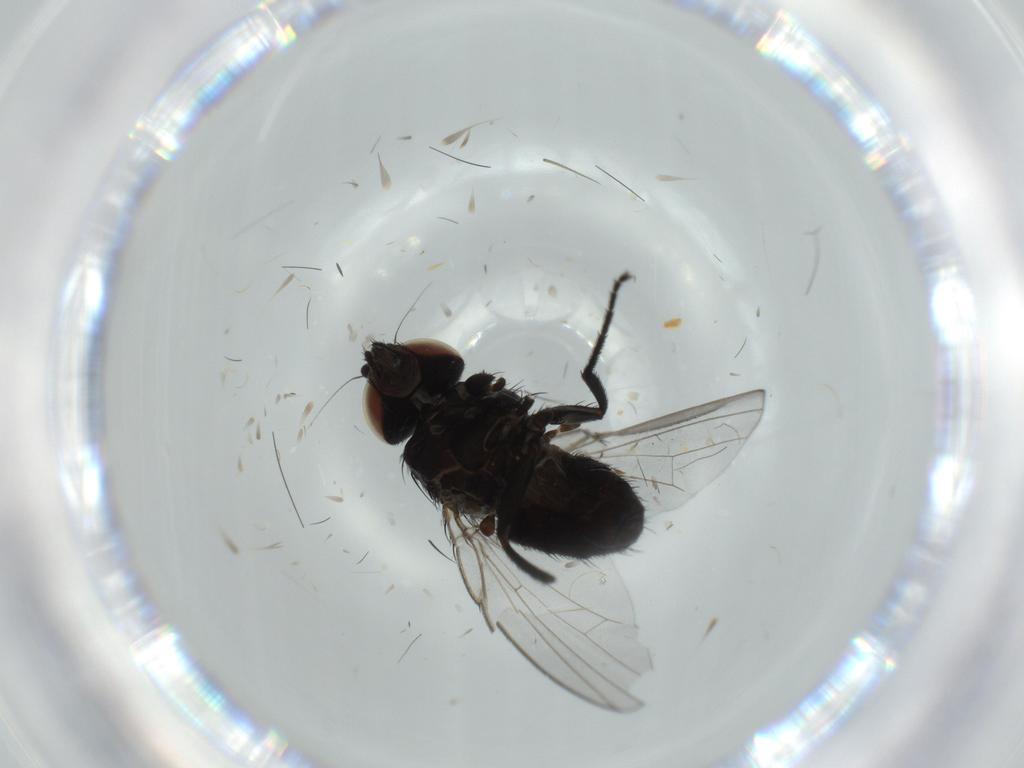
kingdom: Animalia
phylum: Arthropoda
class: Insecta
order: Diptera
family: Milichiidae
